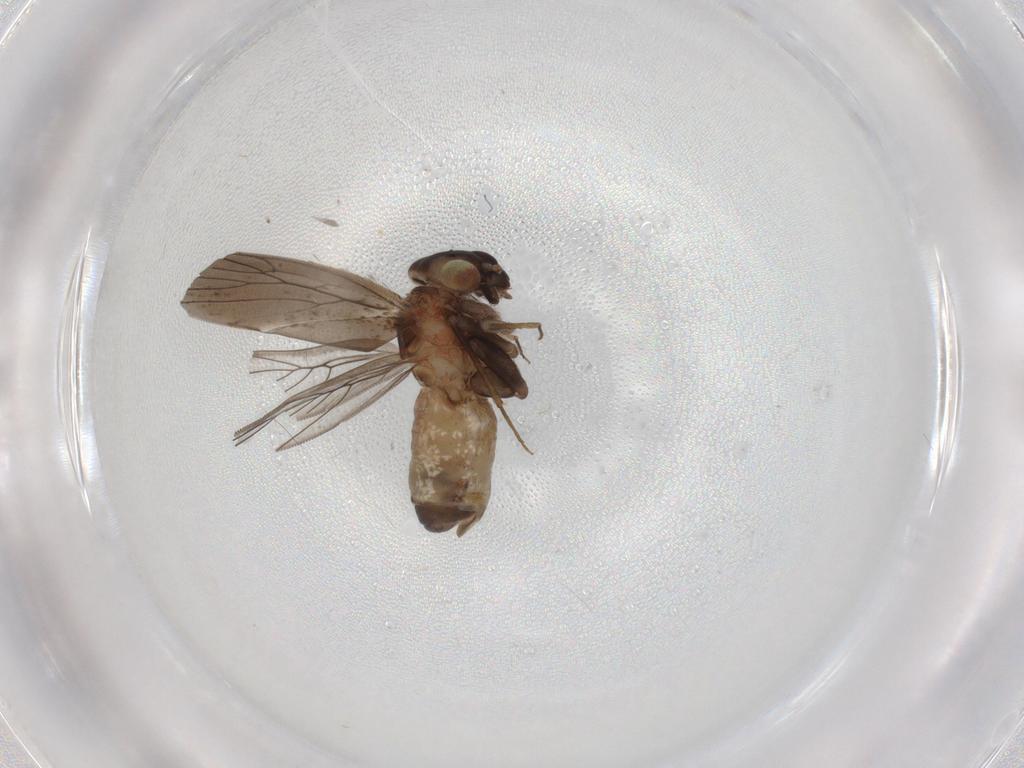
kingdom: Animalia
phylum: Arthropoda
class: Insecta
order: Psocodea
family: Lepidopsocidae
